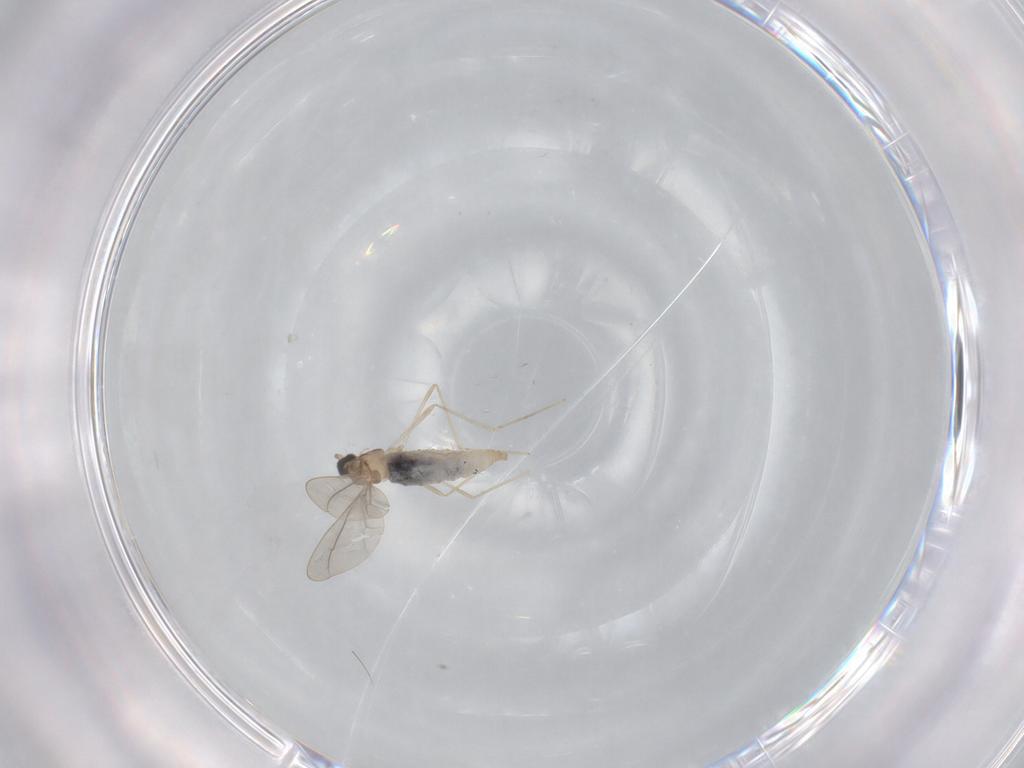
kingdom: Animalia
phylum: Arthropoda
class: Insecta
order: Diptera
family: Cecidomyiidae
